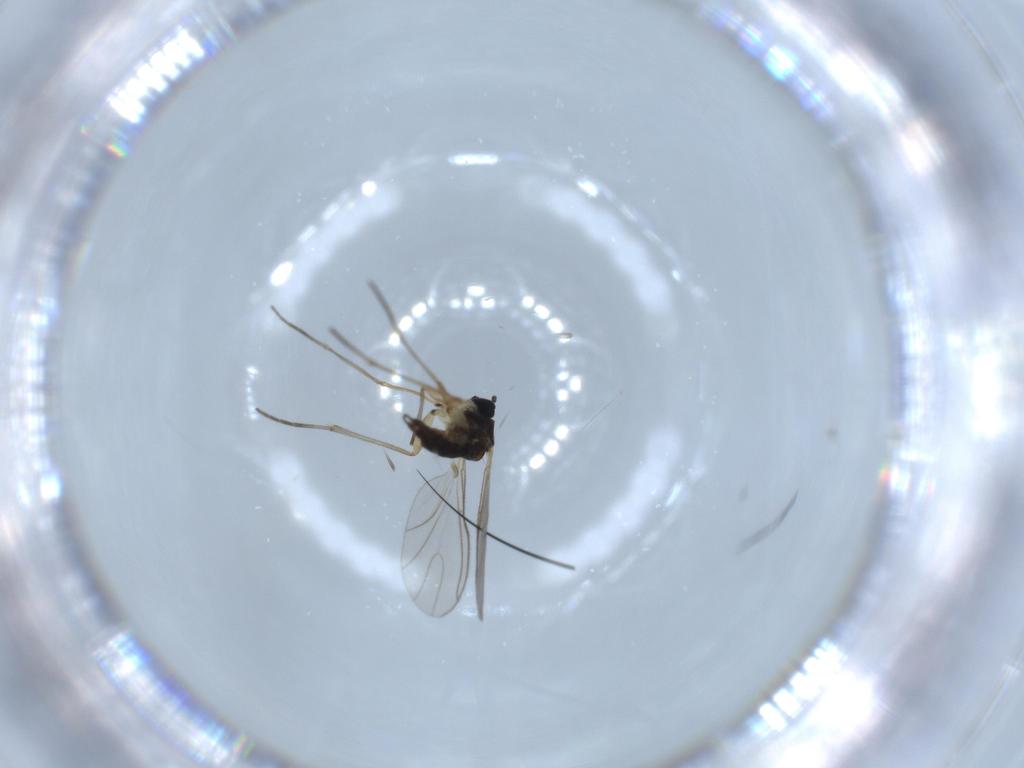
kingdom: Animalia
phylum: Arthropoda
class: Insecta
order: Diptera
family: Sciaridae
